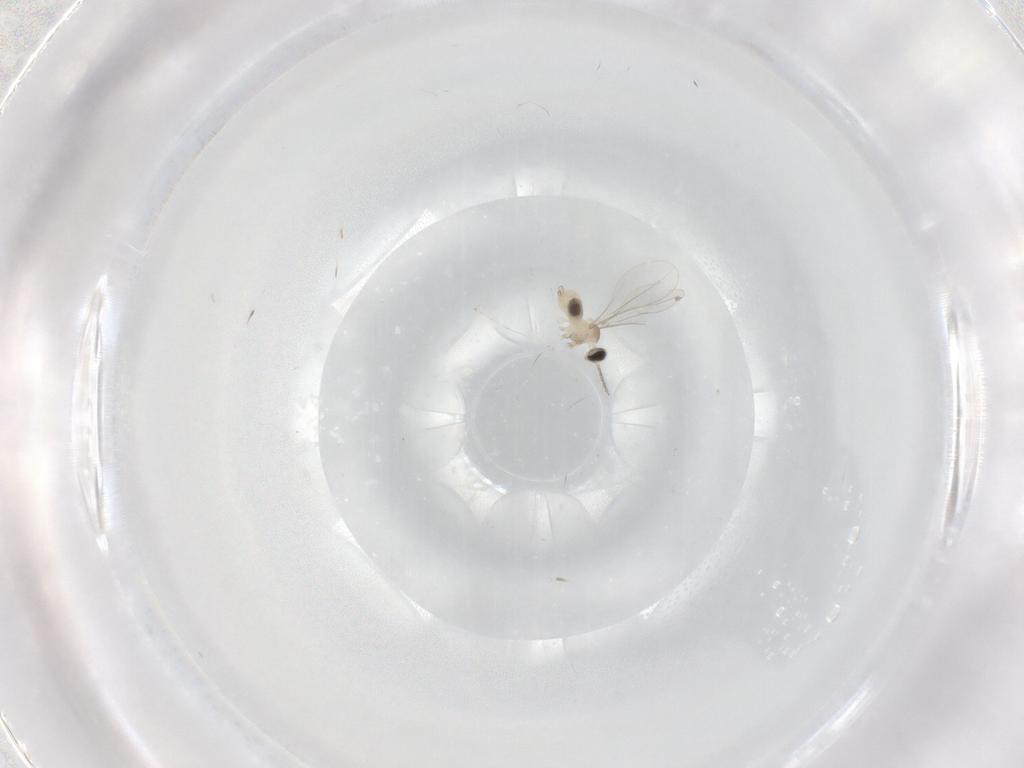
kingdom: Animalia
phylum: Arthropoda
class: Insecta
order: Diptera
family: Cecidomyiidae
